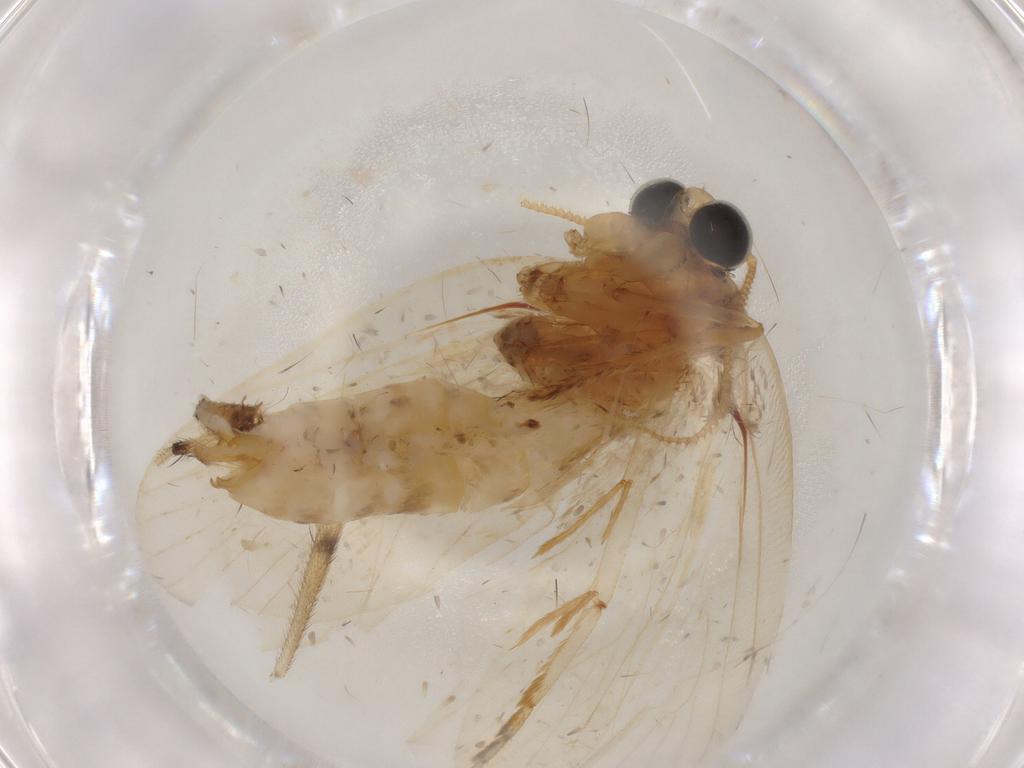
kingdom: Animalia
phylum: Arthropoda
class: Insecta
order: Lepidoptera
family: Eriocottidae
